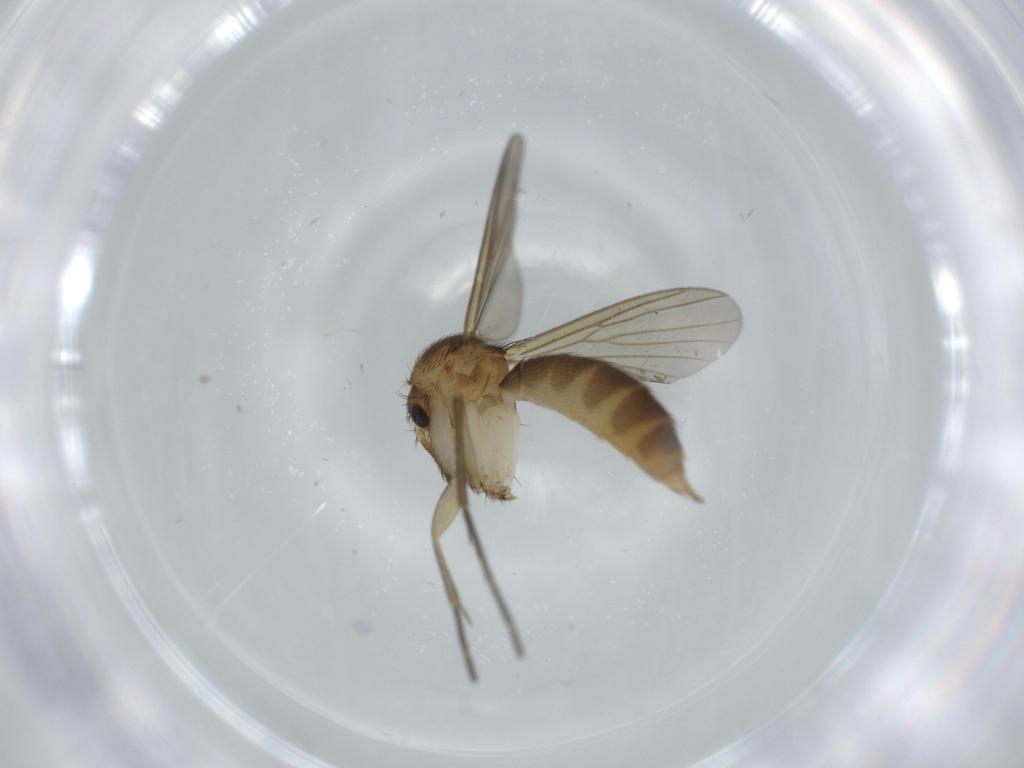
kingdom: Animalia
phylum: Arthropoda
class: Insecta
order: Diptera
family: Mycetophilidae
